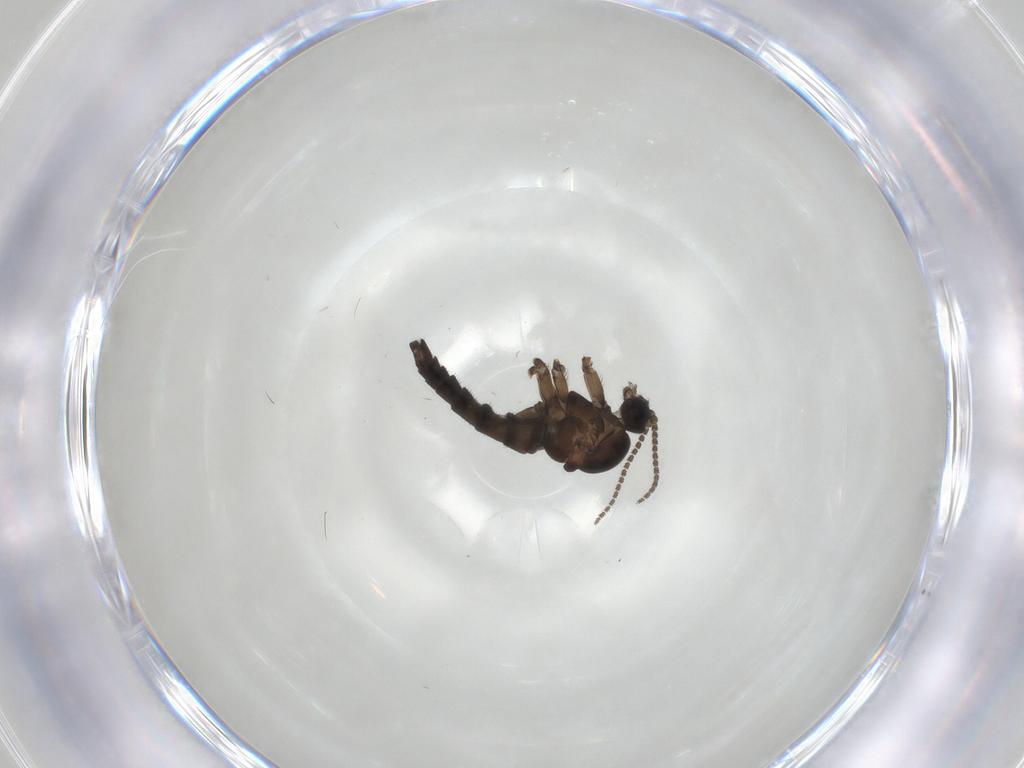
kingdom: Animalia
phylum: Arthropoda
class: Insecta
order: Diptera
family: Sciaridae
